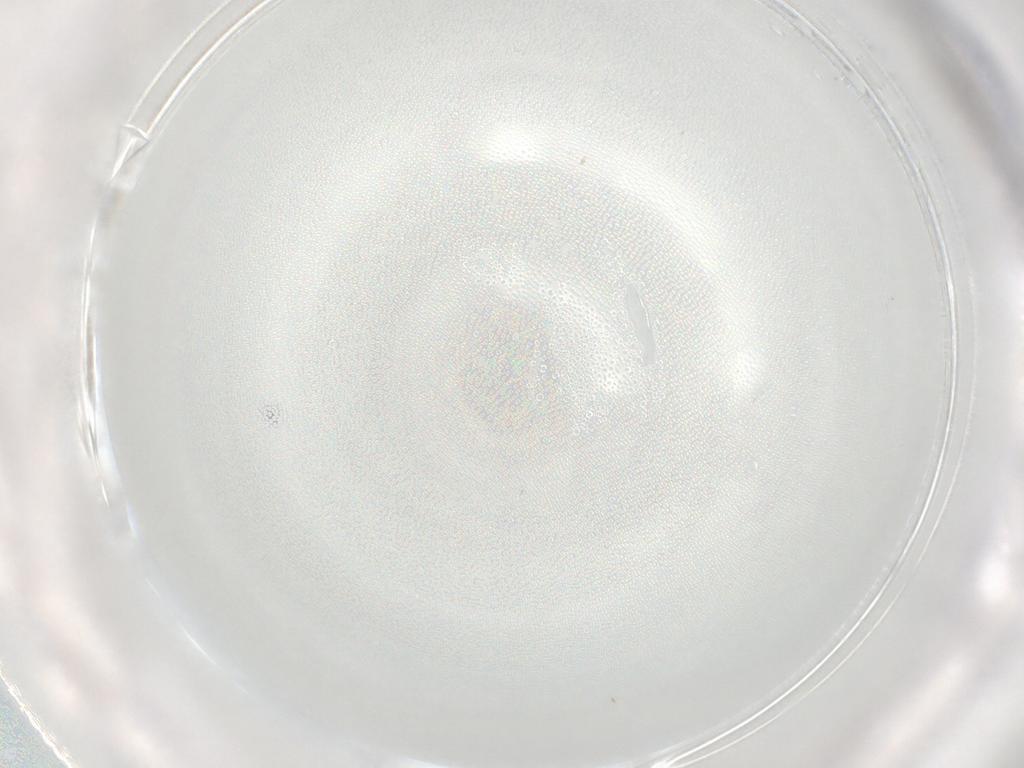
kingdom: Animalia
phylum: Arthropoda
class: Insecta
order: Diptera
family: Cecidomyiidae
